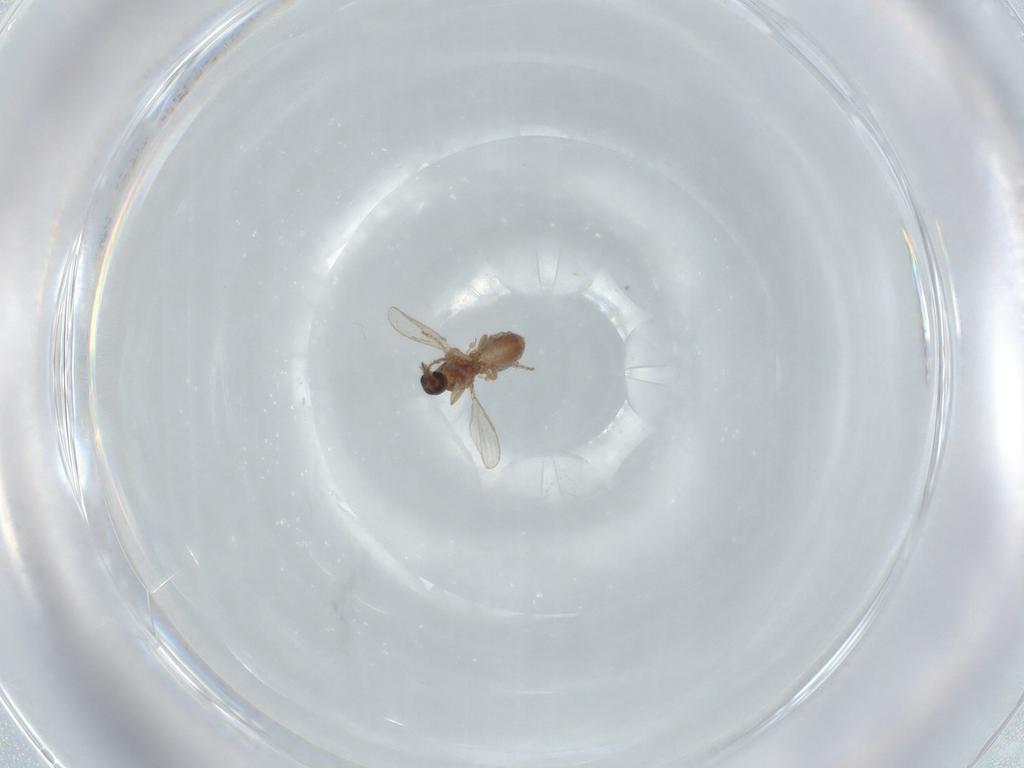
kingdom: Animalia
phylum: Arthropoda
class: Insecta
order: Diptera
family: Ceratopogonidae
